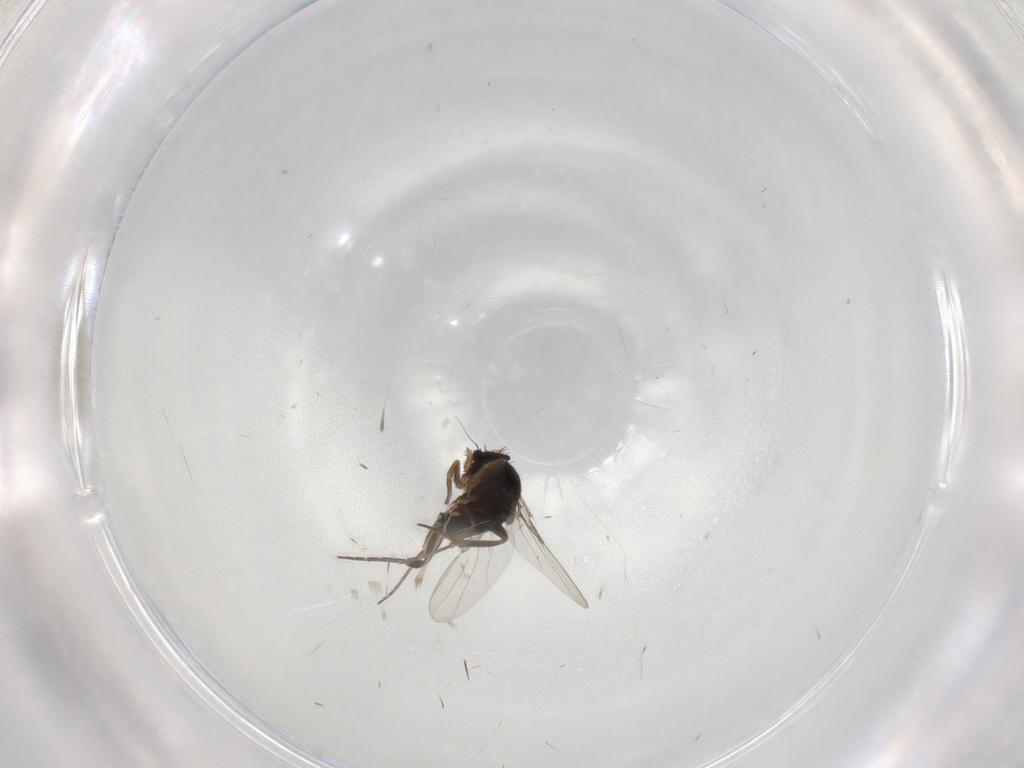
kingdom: Animalia
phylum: Arthropoda
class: Insecta
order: Diptera
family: Phoridae
